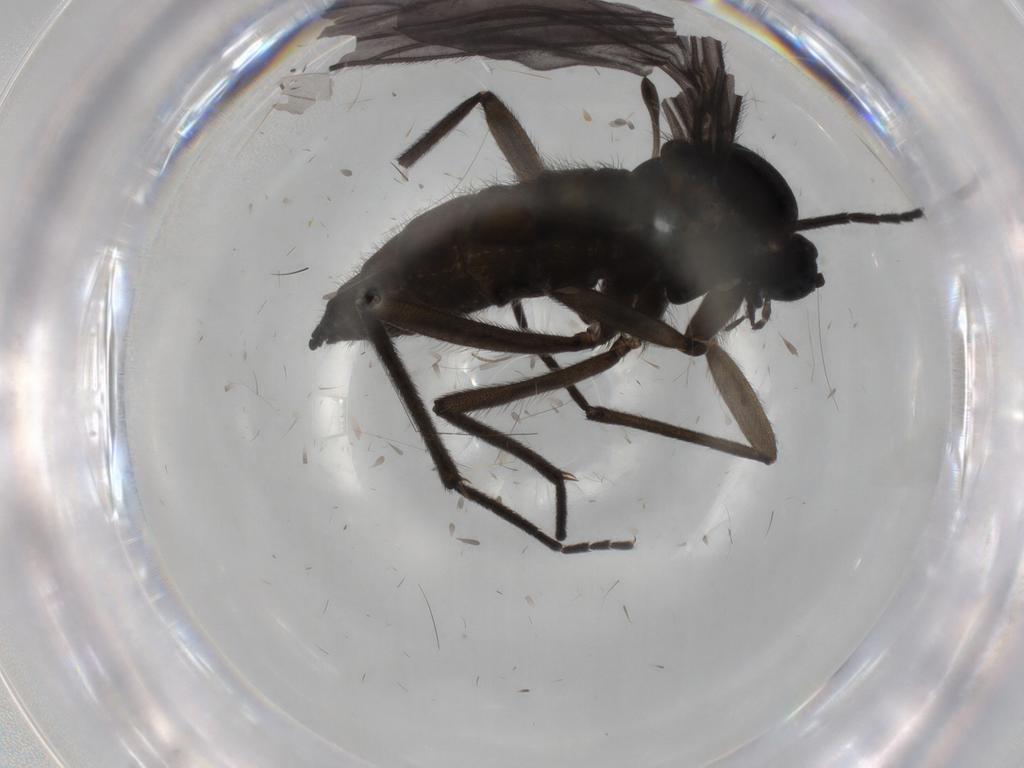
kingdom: Animalia
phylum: Arthropoda
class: Insecta
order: Diptera
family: Sciaridae
